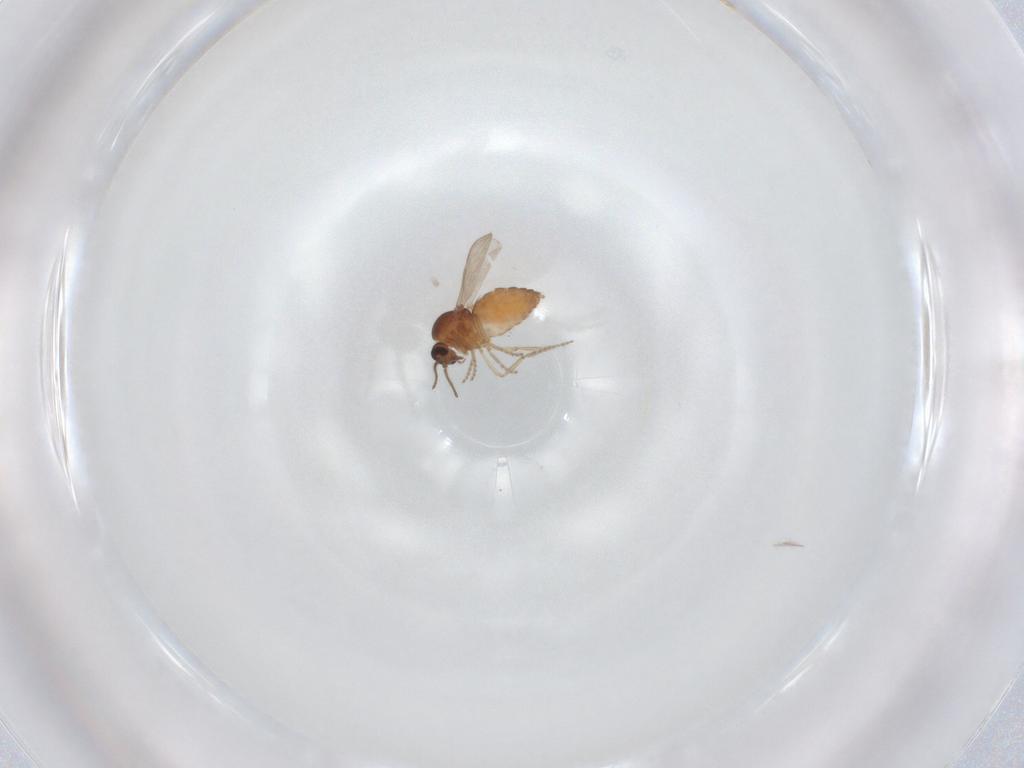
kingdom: Animalia
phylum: Arthropoda
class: Insecta
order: Diptera
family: Ceratopogonidae
